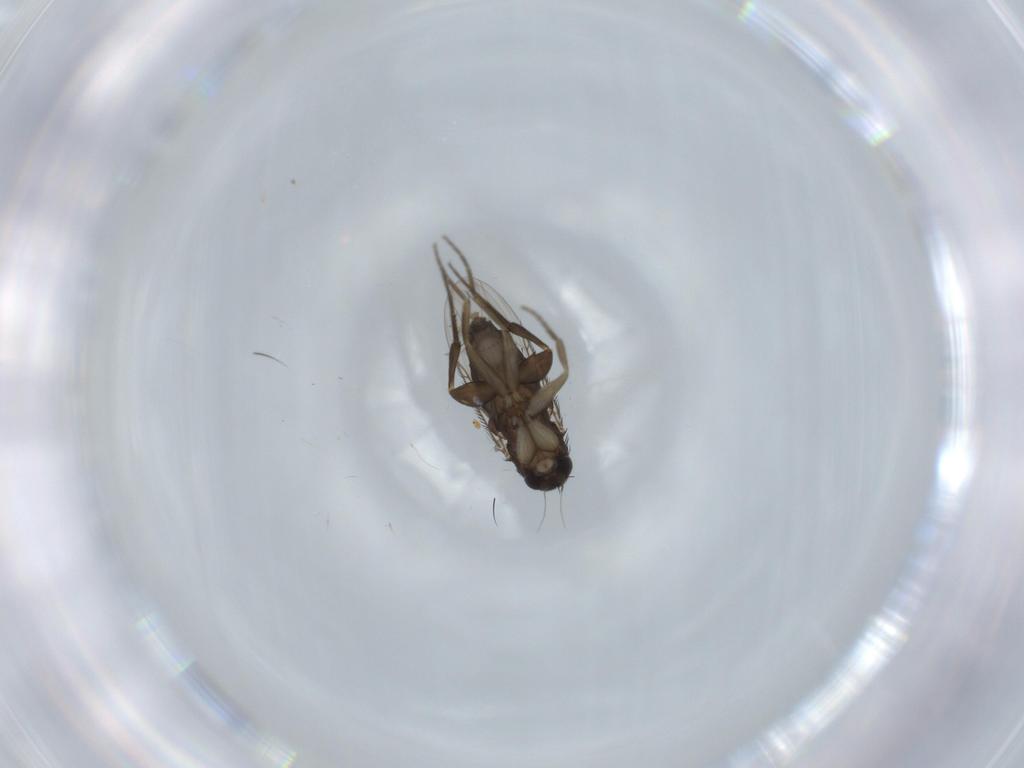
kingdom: Animalia
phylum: Arthropoda
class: Insecta
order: Diptera
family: Phoridae
